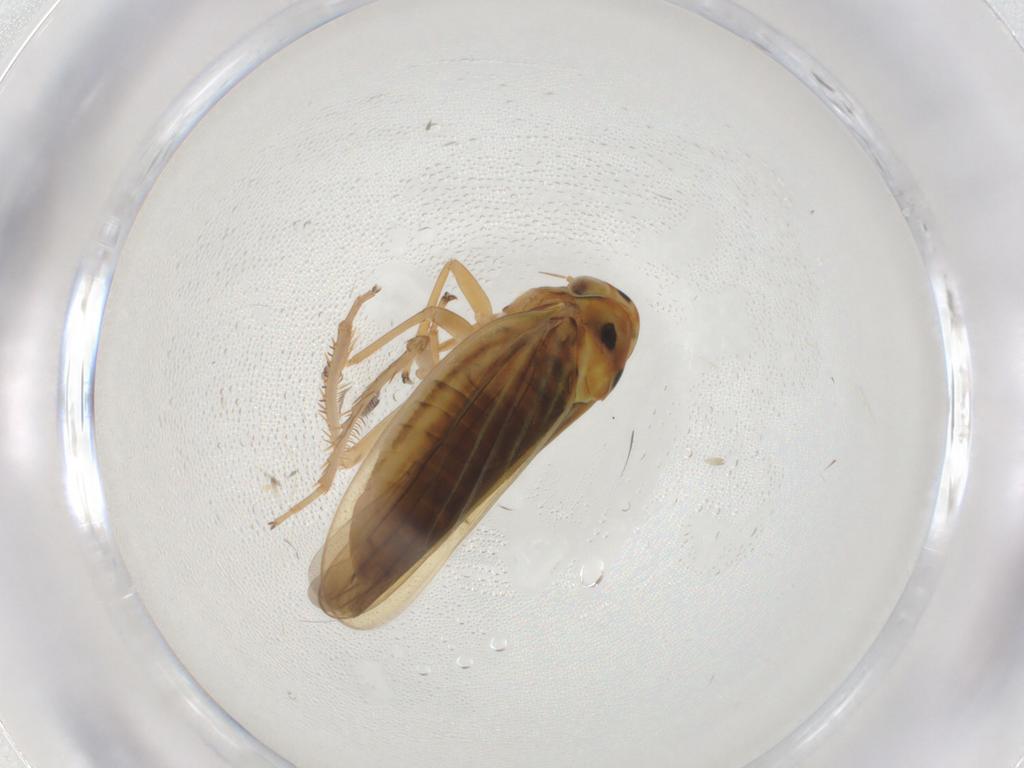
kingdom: Animalia
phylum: Arthropoda
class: Insecta
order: Hemiptera
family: Cicadellidae
